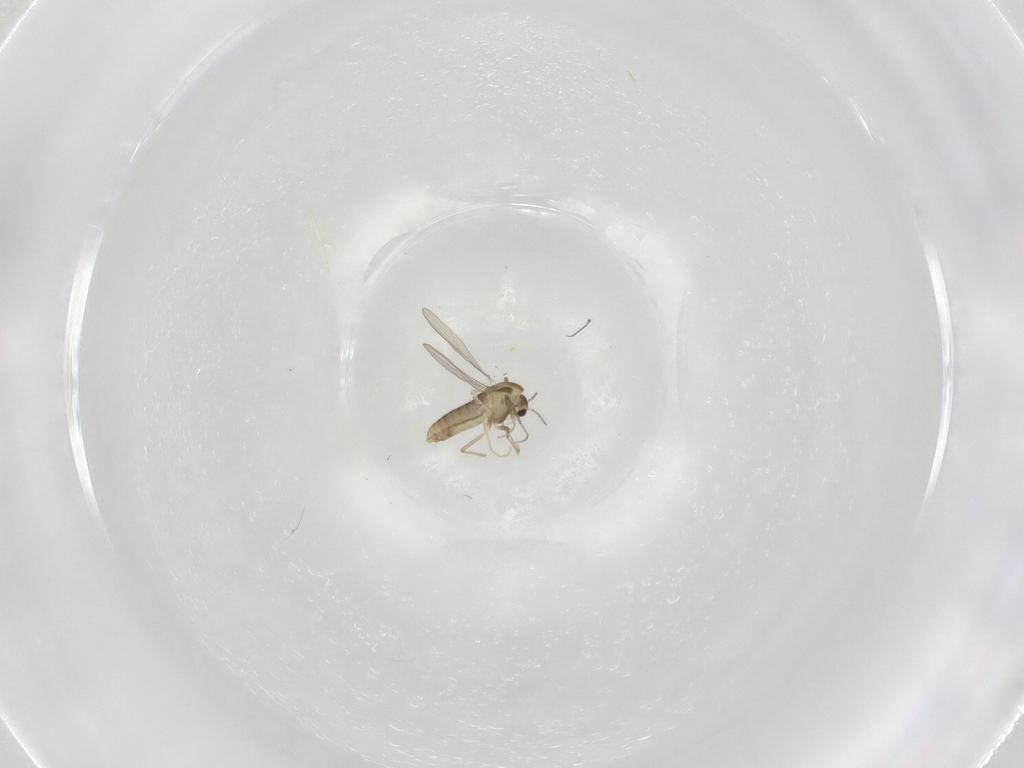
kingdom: Animalia
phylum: Arthropoda
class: Insecta
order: Diptera
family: Chironomidae
